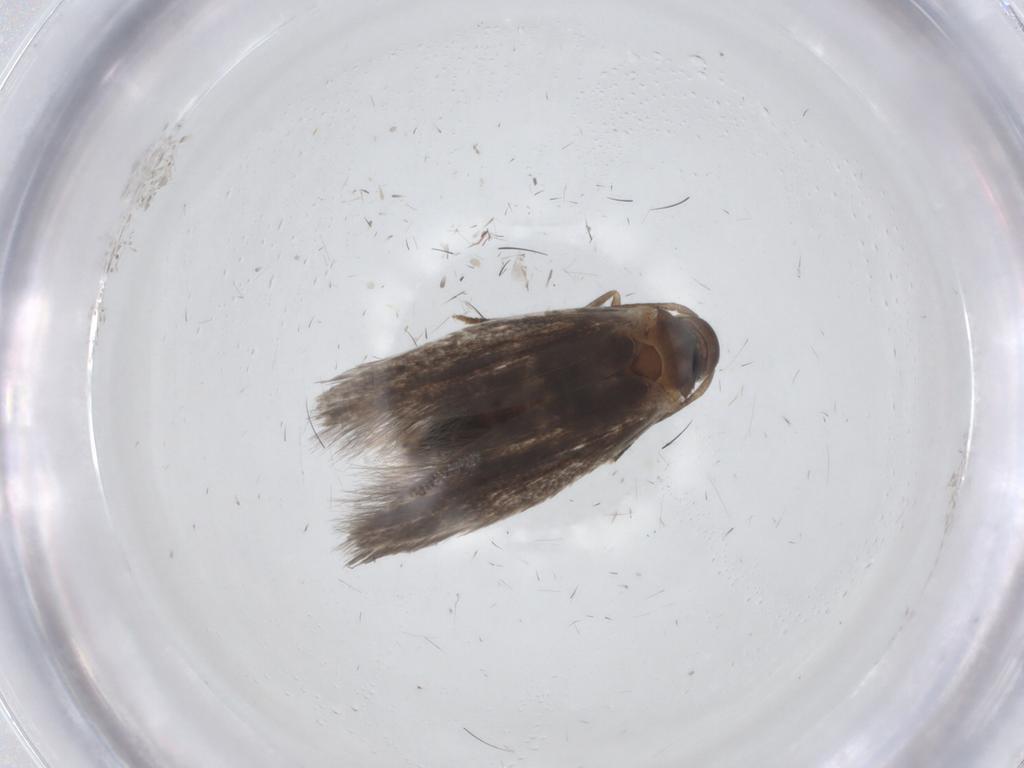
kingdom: Animalia
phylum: Arthropoda
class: Insecta
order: Lepidoptera
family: Elachistidae
